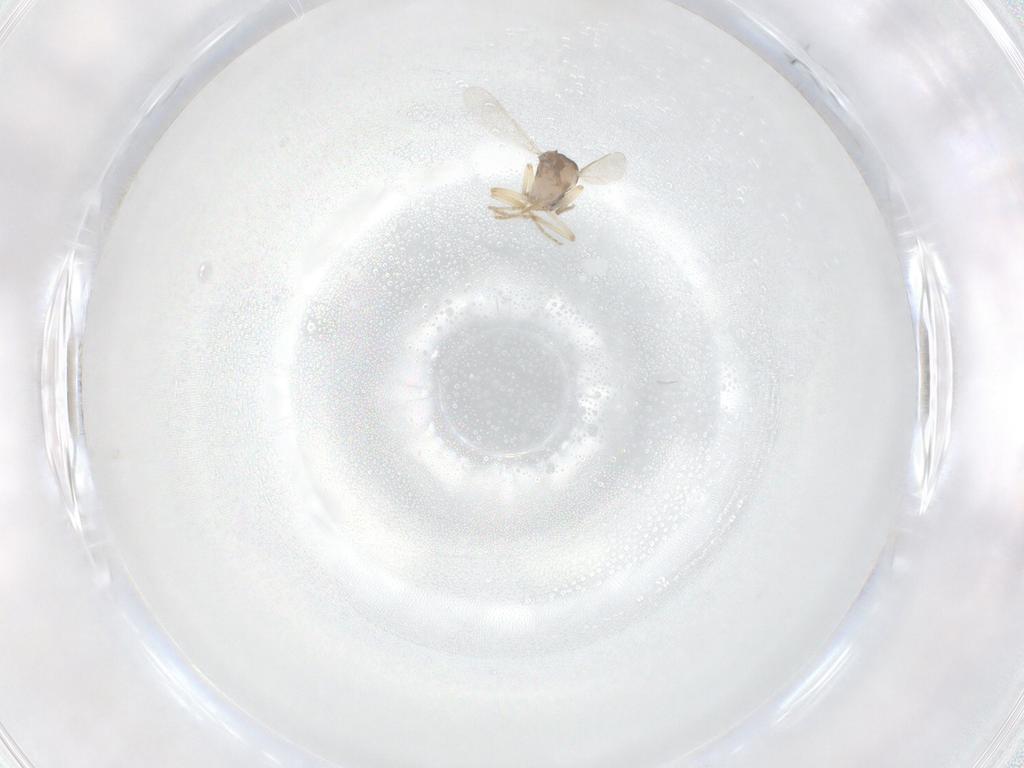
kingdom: Animalia
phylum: Arthropoda
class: Insecta
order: Diptera
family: Ceratopogonidae
